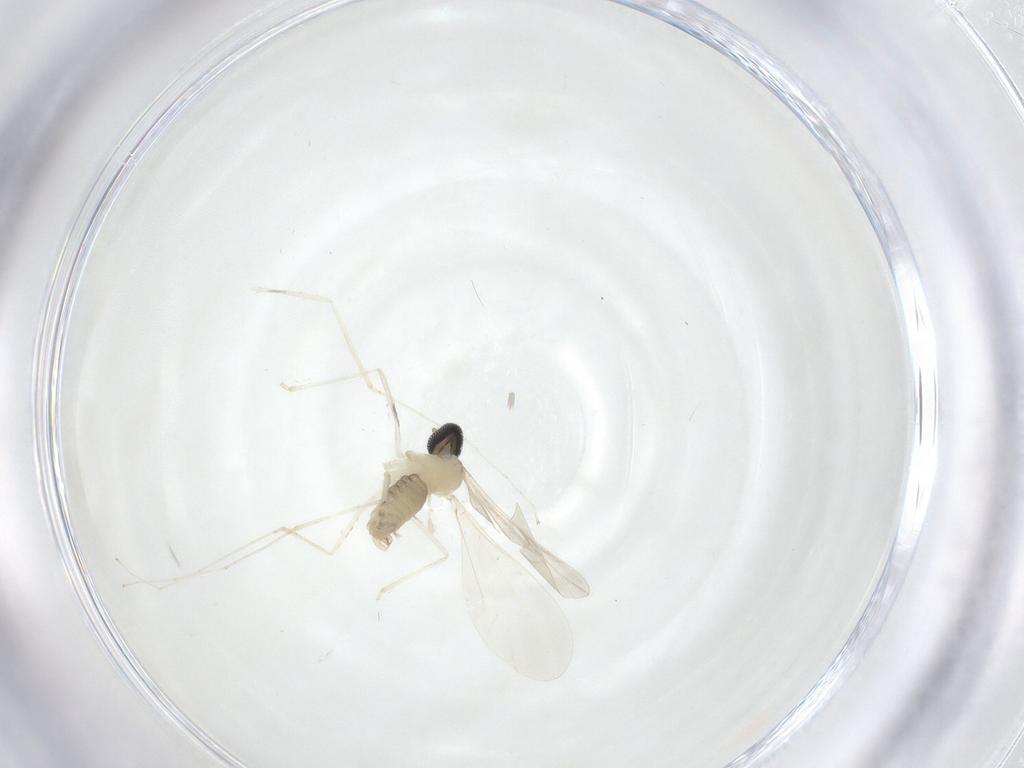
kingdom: Animalia
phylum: Arthropoda
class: Insecta
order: Diptera
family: Cecidomyiidae
